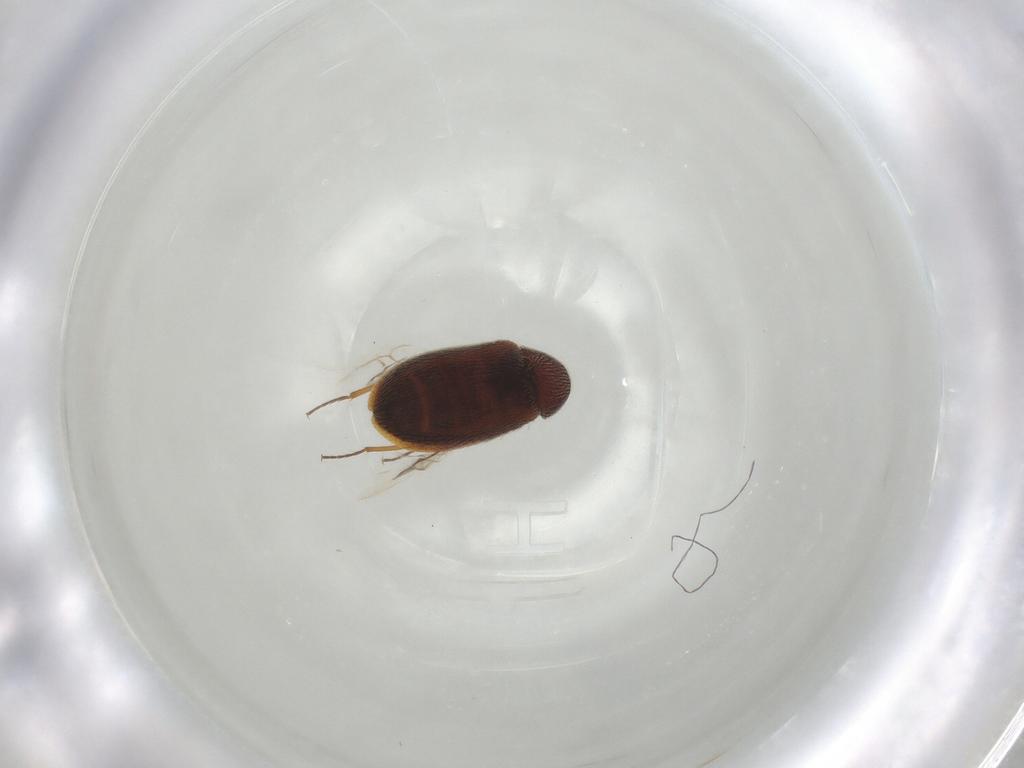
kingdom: Animalia
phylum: Arthropoda
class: Insecta
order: Coleoptera
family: Rhadalidae
